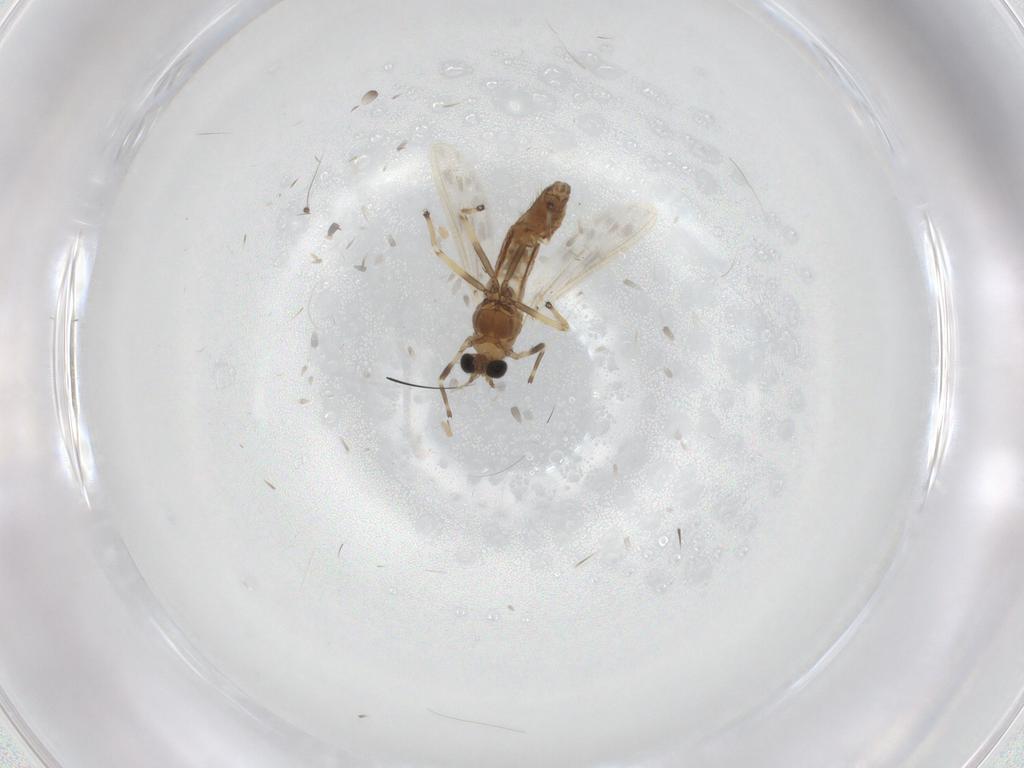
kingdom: Animalia
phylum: Arthropoda
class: Insecta
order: Diptera
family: Chironomidae
